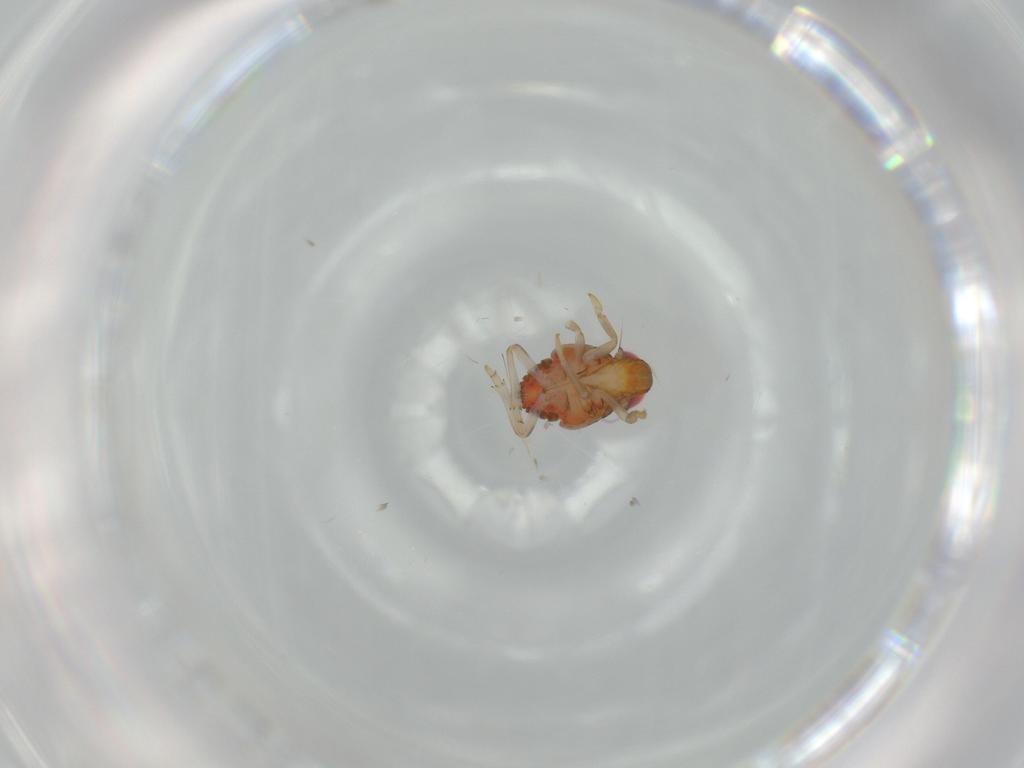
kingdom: Animalia
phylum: Arthropoda
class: Insecta
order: Hemiptera
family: Issidae
